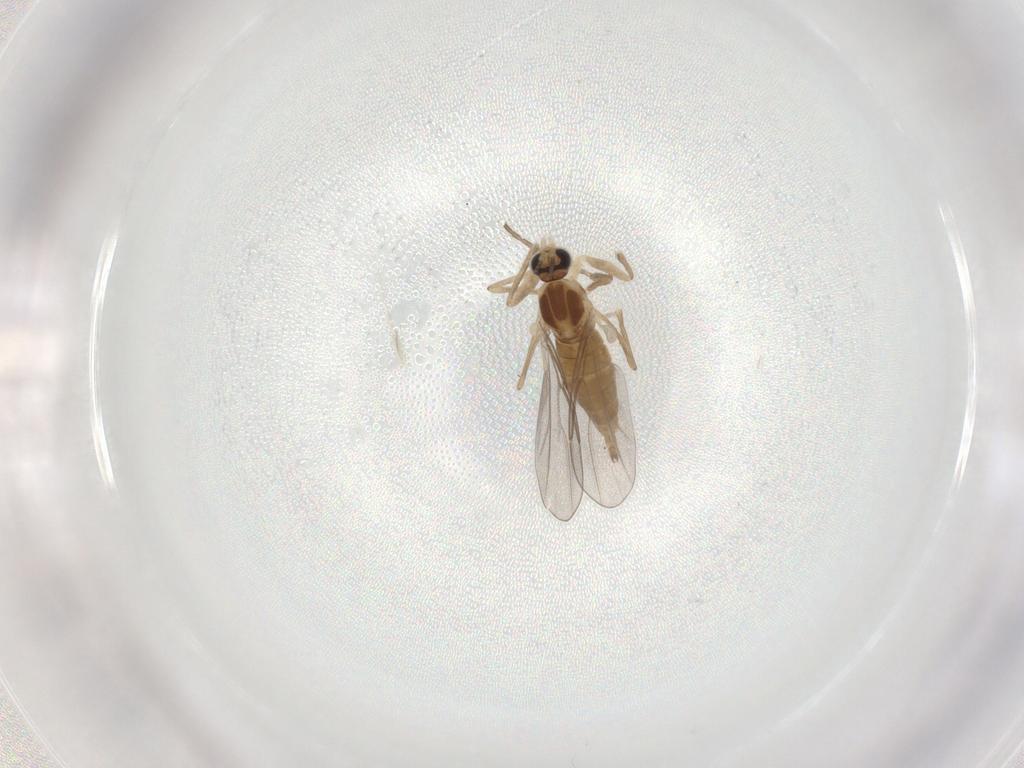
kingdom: Animalia
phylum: Arthropoda
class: Insecta
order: Diptera
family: Cecidomyiidae
